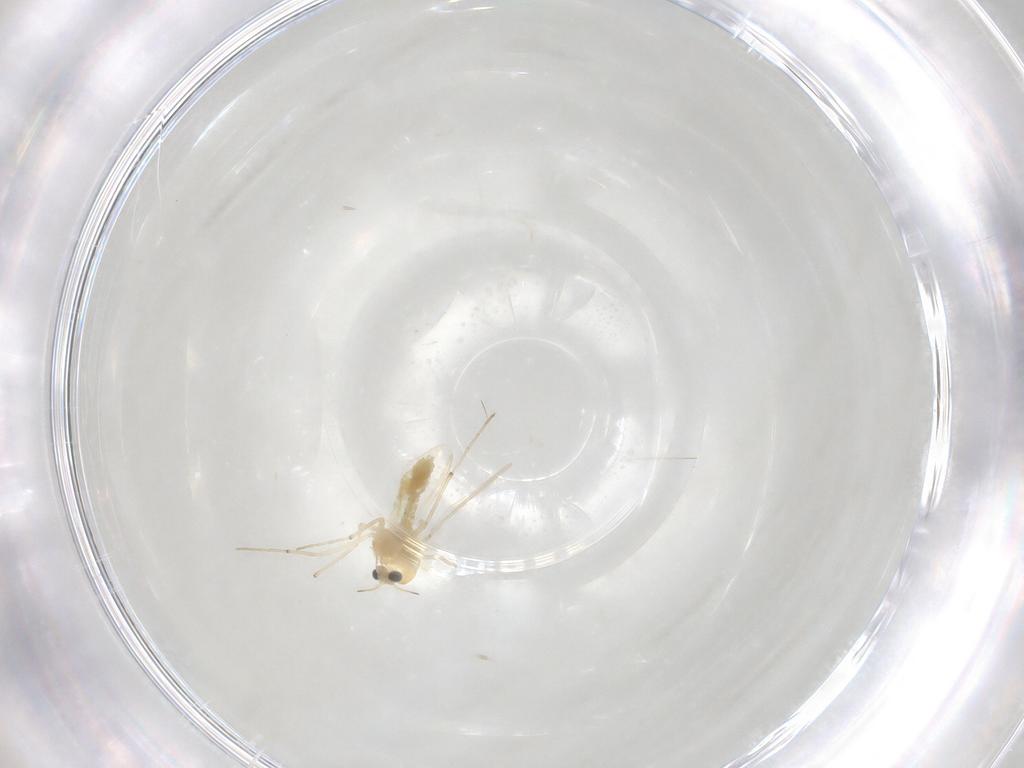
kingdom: Animalia
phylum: Arthropoda
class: Insecta
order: Diptera
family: Chironomidae
